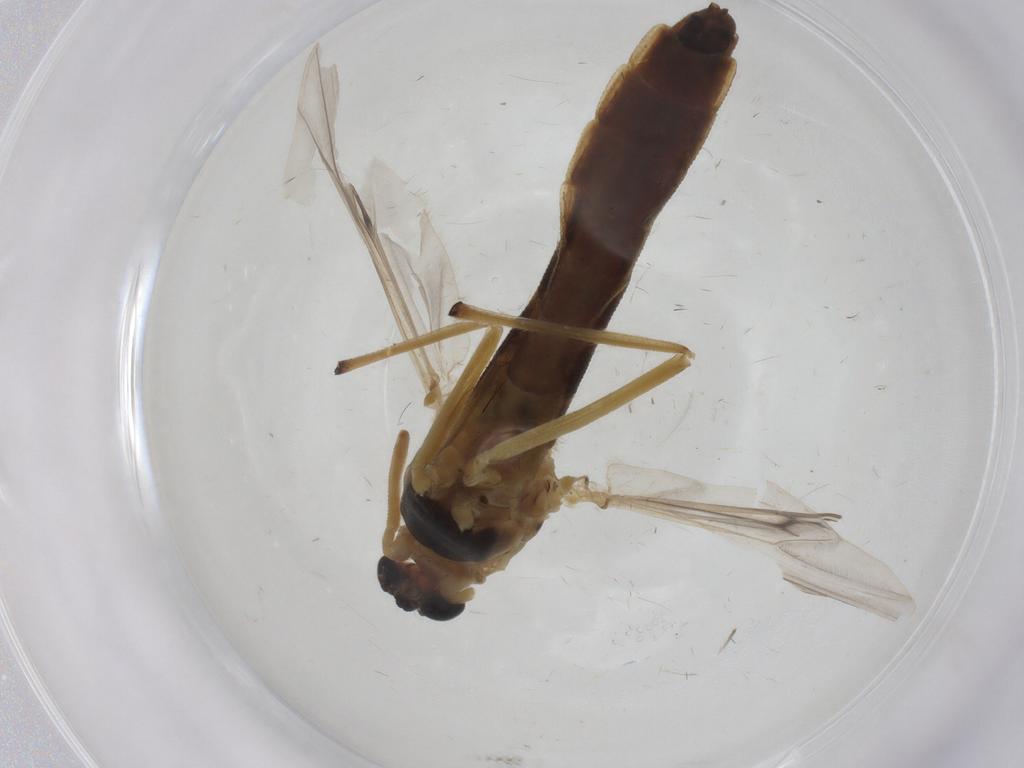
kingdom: Animalia
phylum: Arthropoda
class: Insecta
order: Diptera
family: Chironomidae
